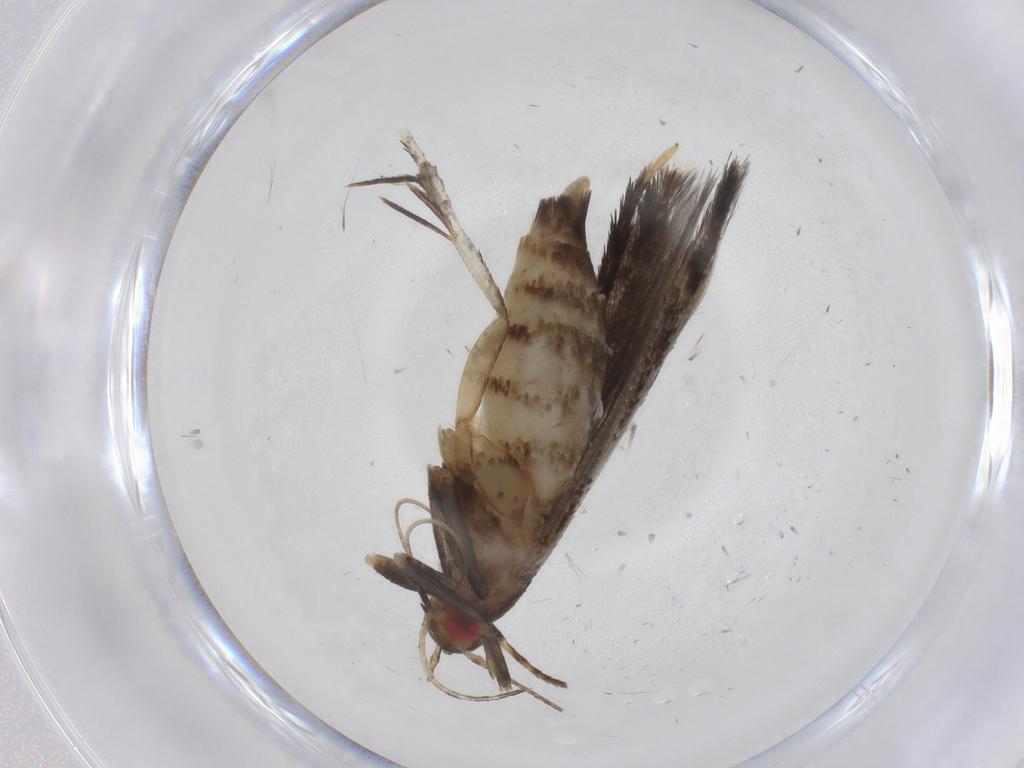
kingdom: Animalia
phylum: Arthropoda
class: Insecta
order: Lepidoptera
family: Gelechiidae
